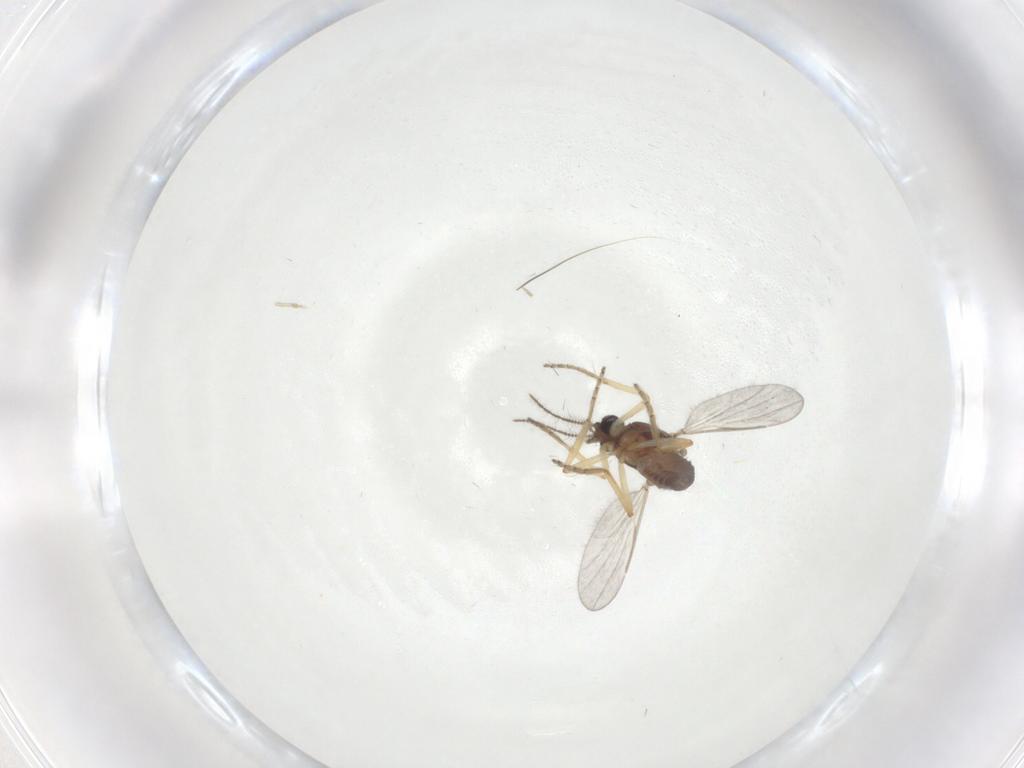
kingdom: Animalia
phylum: Arthropoda
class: Insecta
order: Diptera
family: Ceratopogonidae
